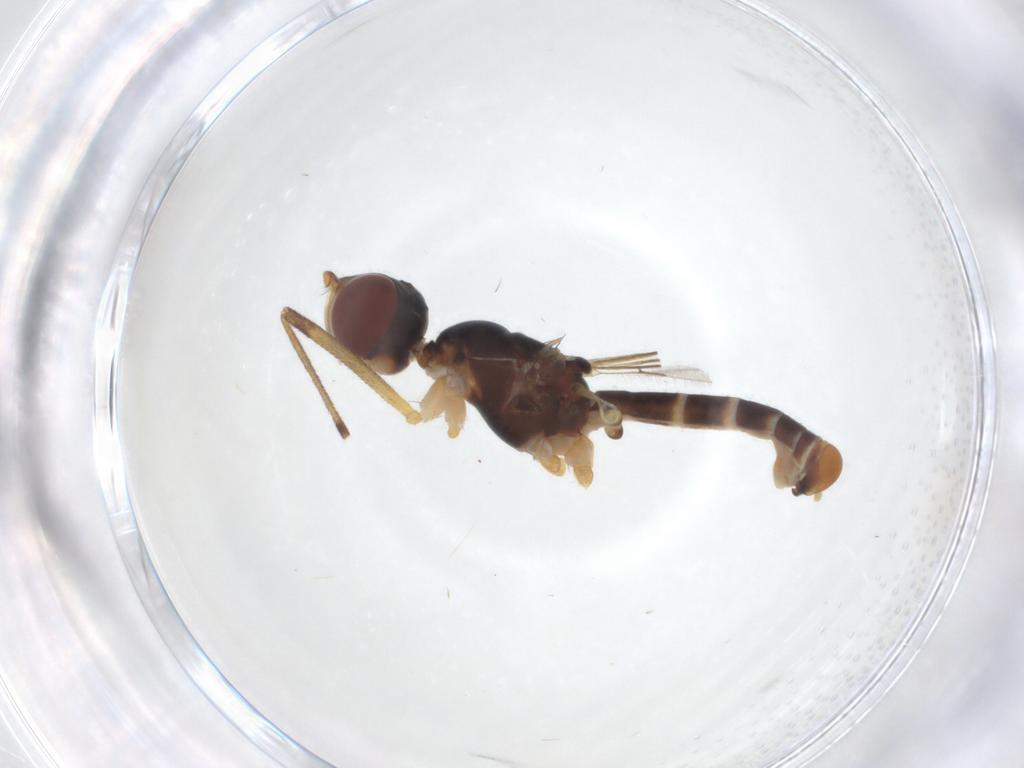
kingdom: Animalia
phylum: Arthropoda
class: Insecta
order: Diptera
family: Micropezidae
